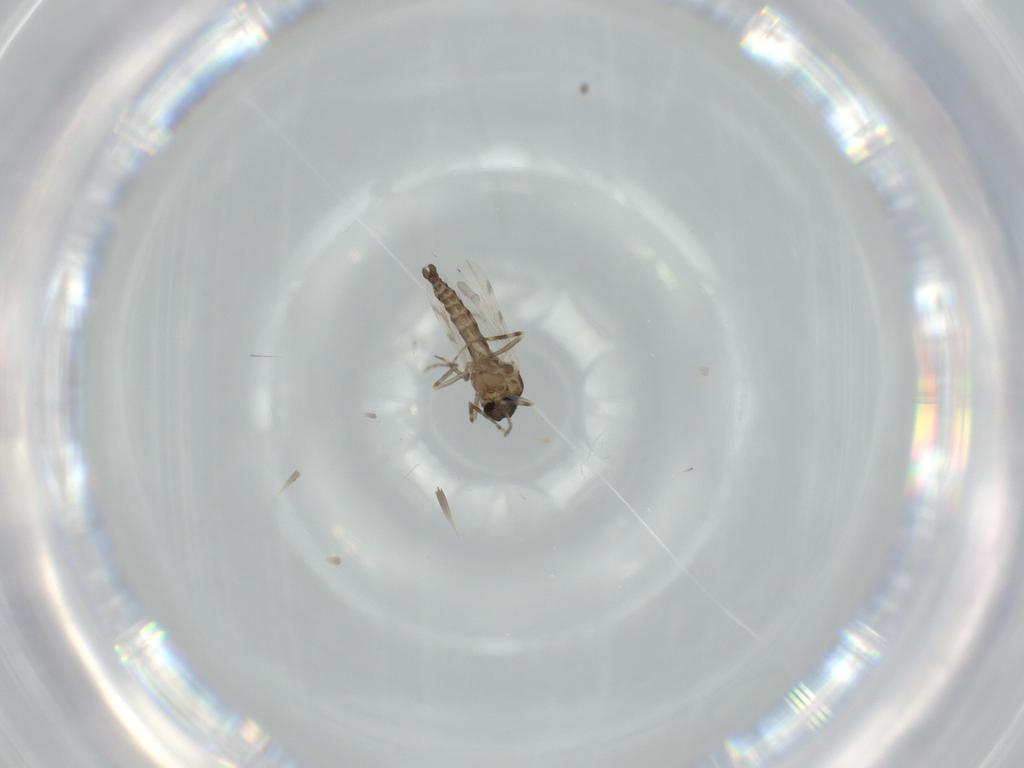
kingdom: Animalia
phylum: Arthropoda
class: Insecta
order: Diptera
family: Ceratopogonidae
